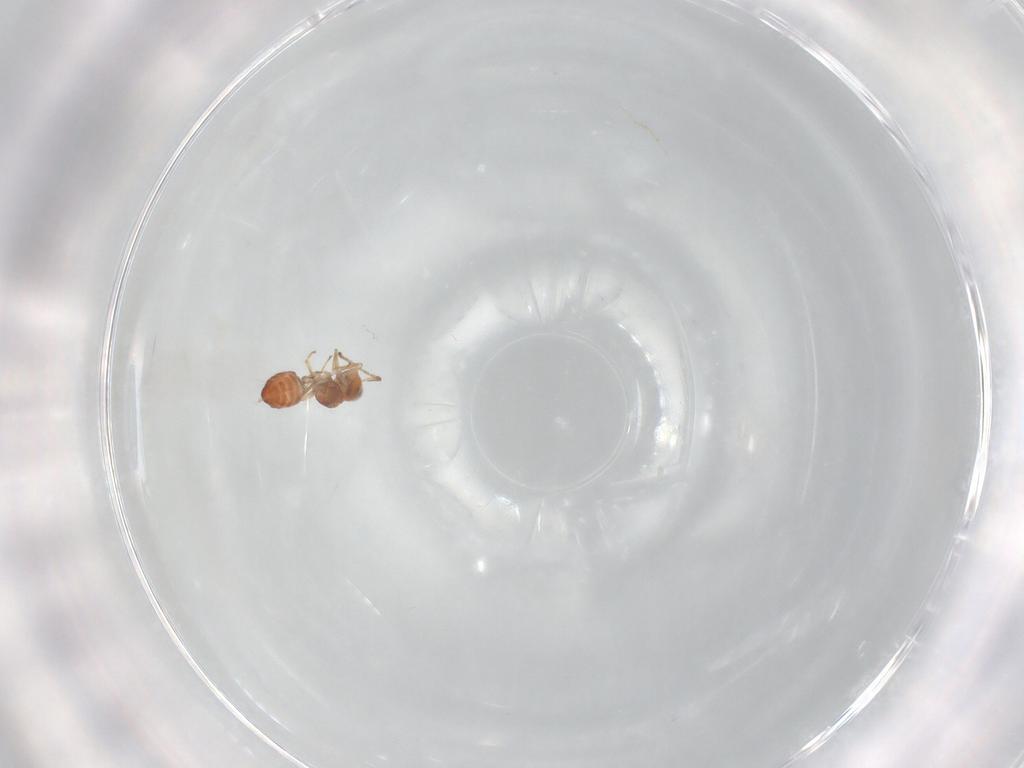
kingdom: Animalia
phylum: Arthropoda
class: Insecta
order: Hymenoptera
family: Encyrtidae
